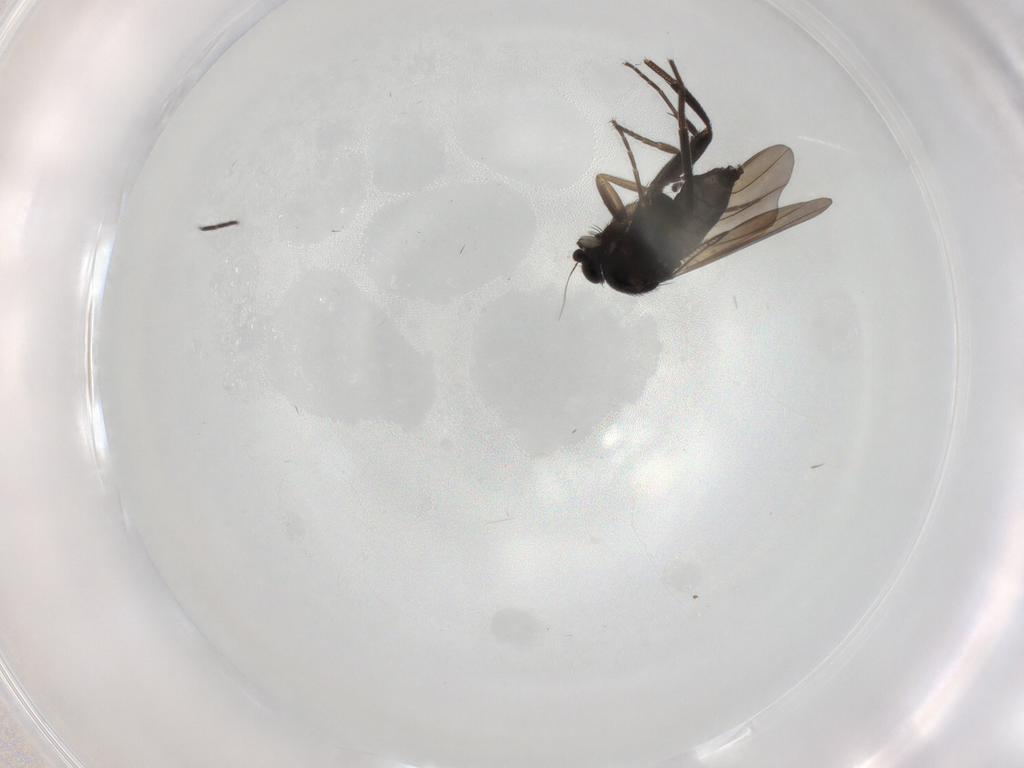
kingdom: Animalia
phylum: Arthropoda
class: Insecta
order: Diptera
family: Phoridae
